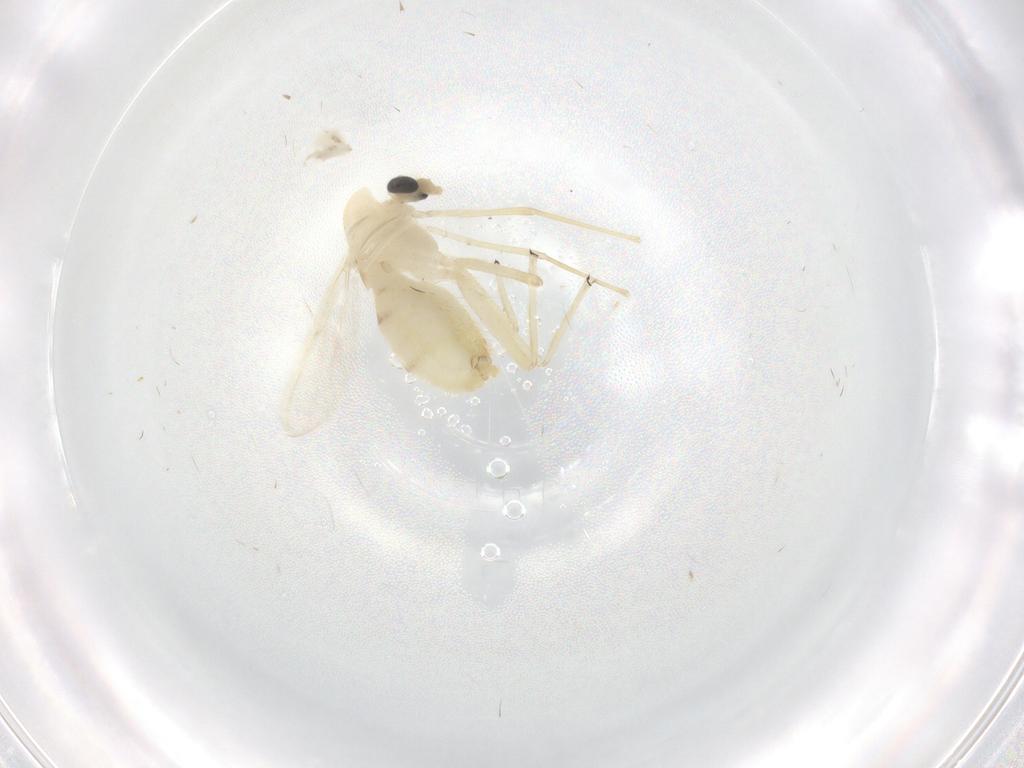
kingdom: Animalia
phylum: Arthropoda
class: Insecta
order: Diptera
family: Chironomidae
